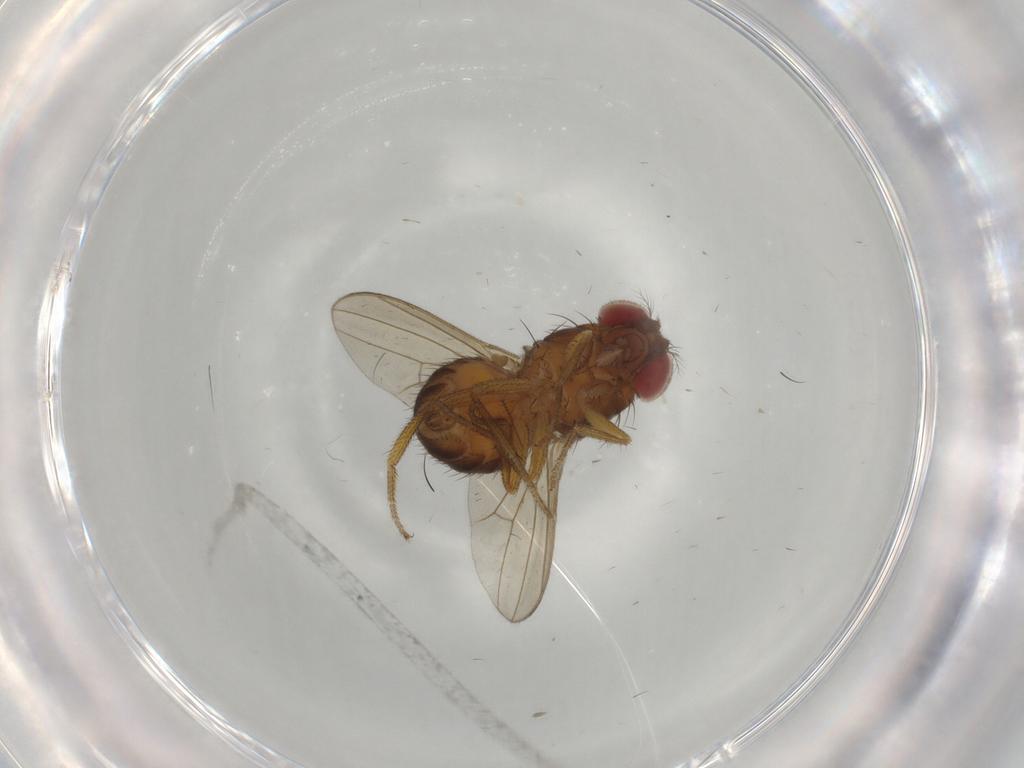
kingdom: Animalia
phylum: Arthropoda
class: Insecta
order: Diptera
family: Drosophilidae
